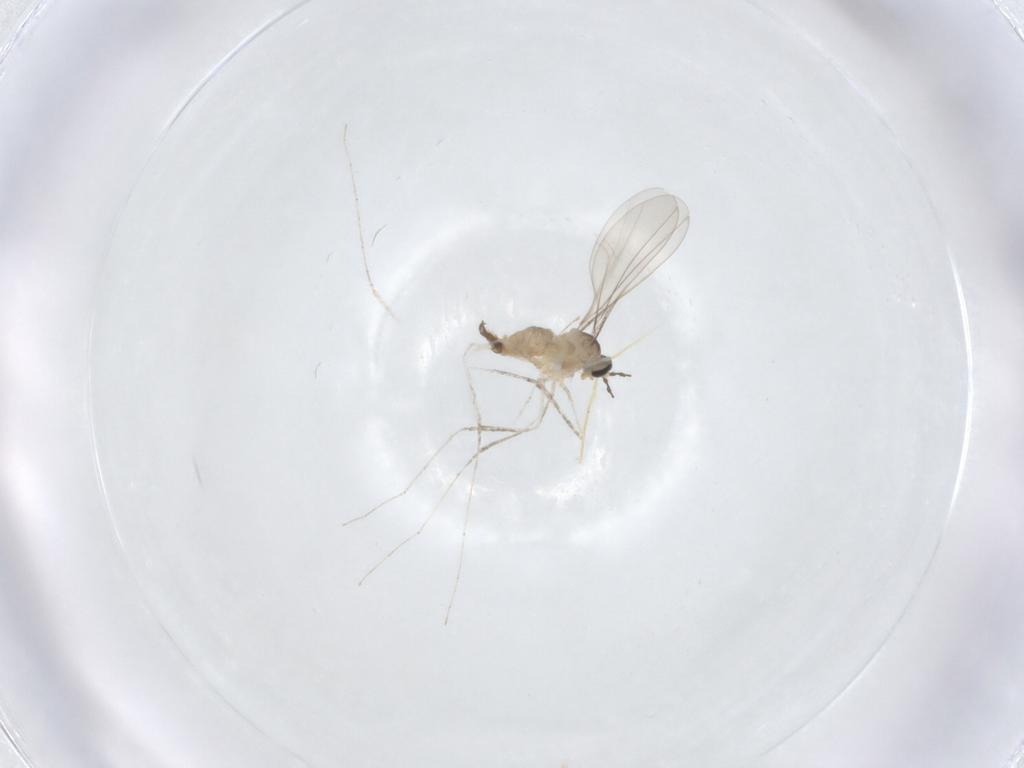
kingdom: Animalia
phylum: Arthropoda
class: Insecta
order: Diptera
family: Cecidomyiidae
